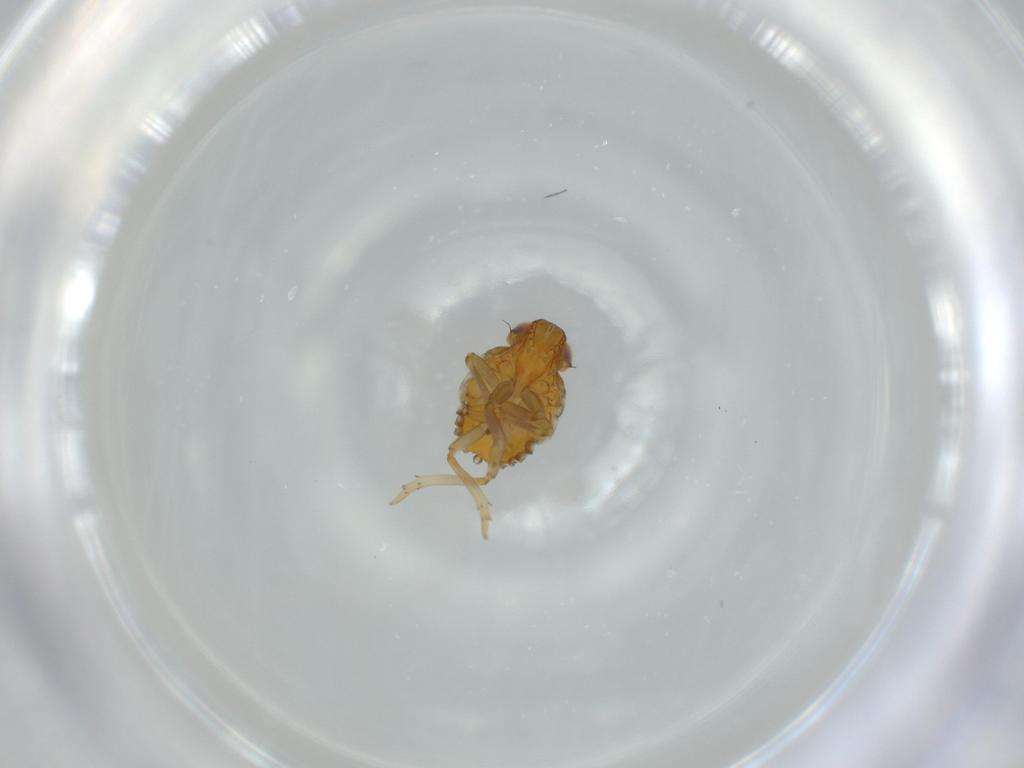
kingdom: Animalia
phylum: Arthropoda
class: Insecta
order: Hemiptera
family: Issidae
